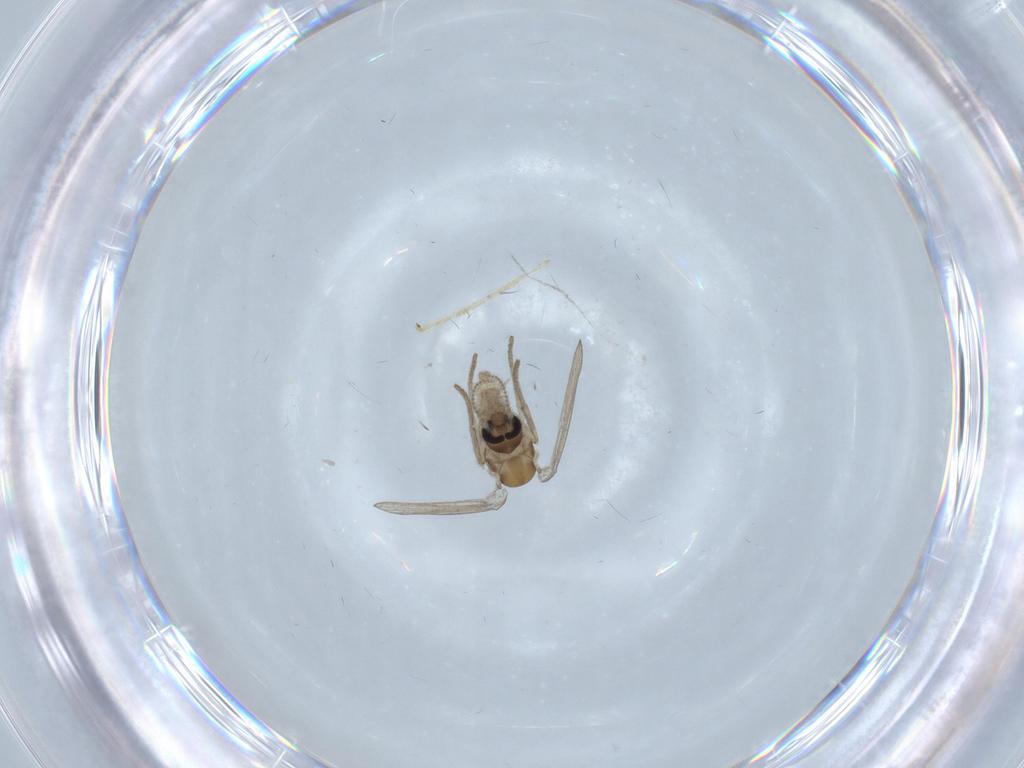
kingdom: Animalia
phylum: Arthropoda
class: Insecta
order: Diptera
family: Psychodidae
